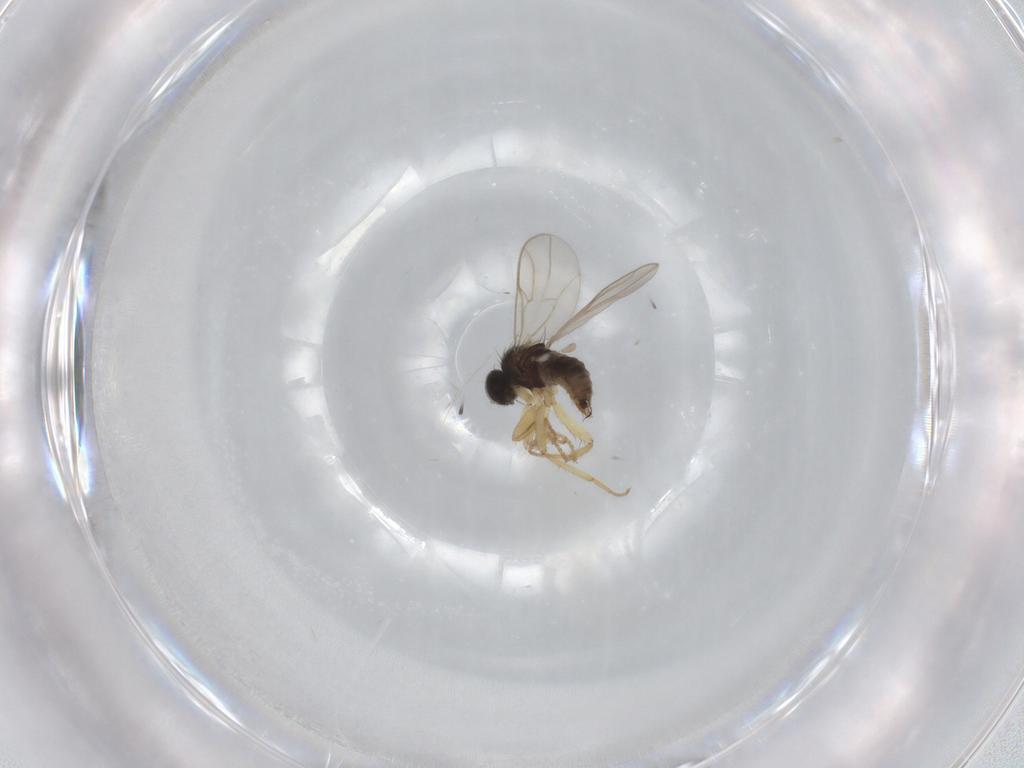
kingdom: Animalia
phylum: Arthropoda
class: Insecta
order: Diptera
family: Hybotidae
